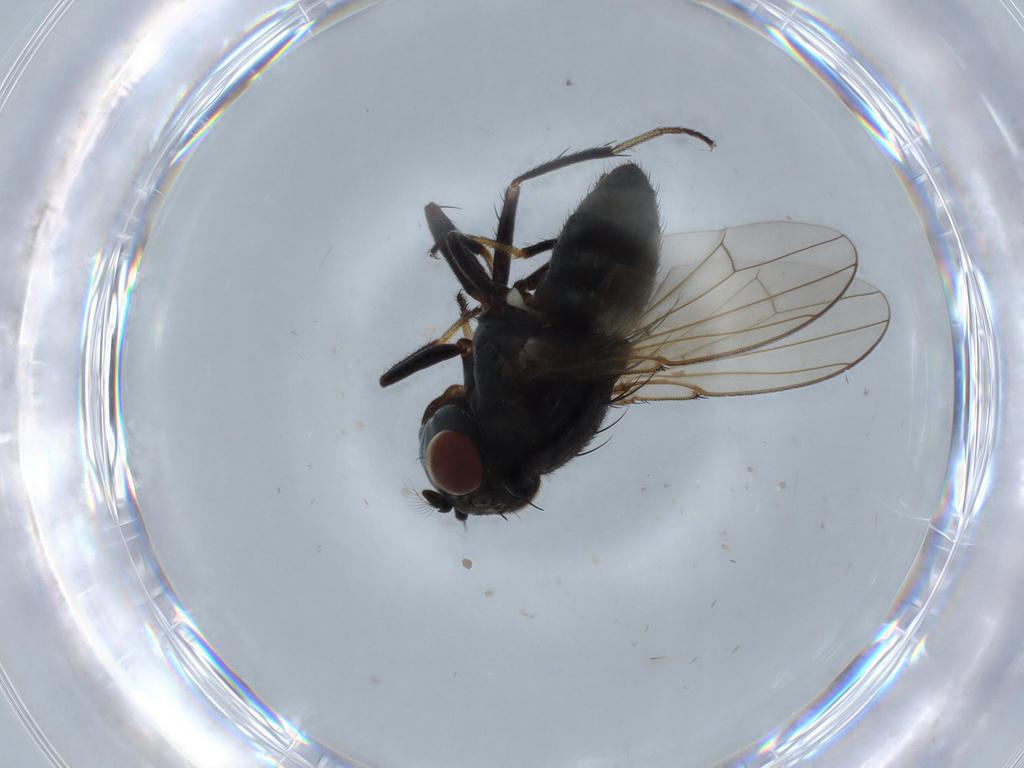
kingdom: Animalia
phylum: Arthropoda
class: Insecta
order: Diptera
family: Ephydridae
